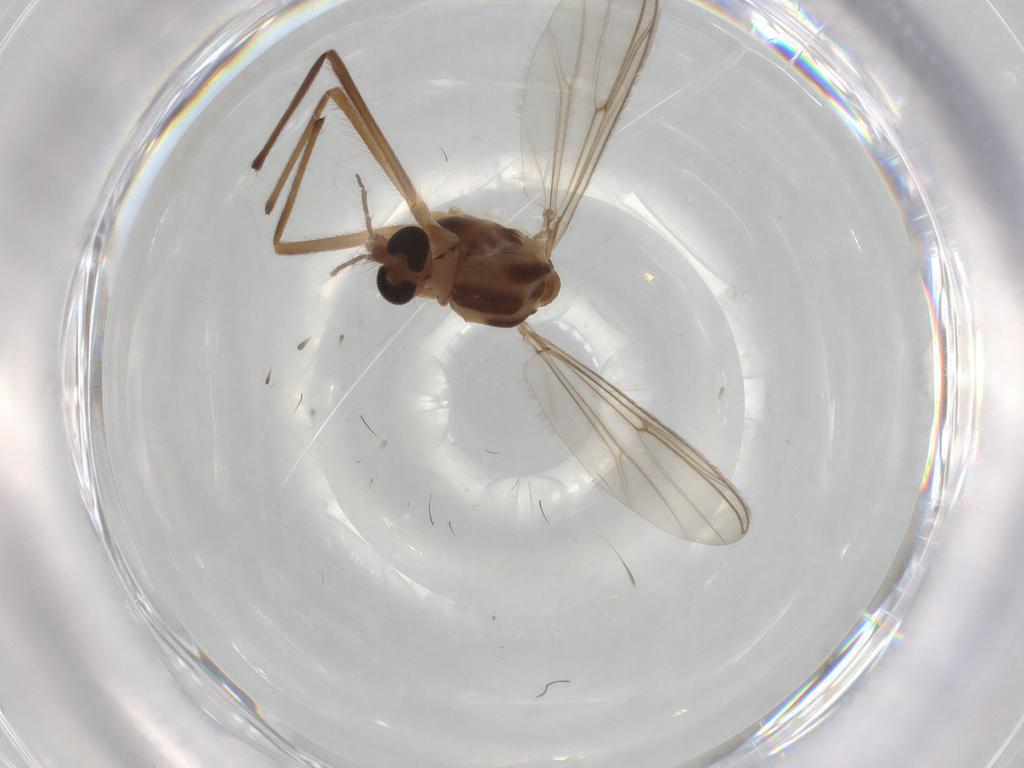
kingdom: Animalia
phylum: Arthropoda
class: Insecta
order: Diptera
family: Chironomidae
